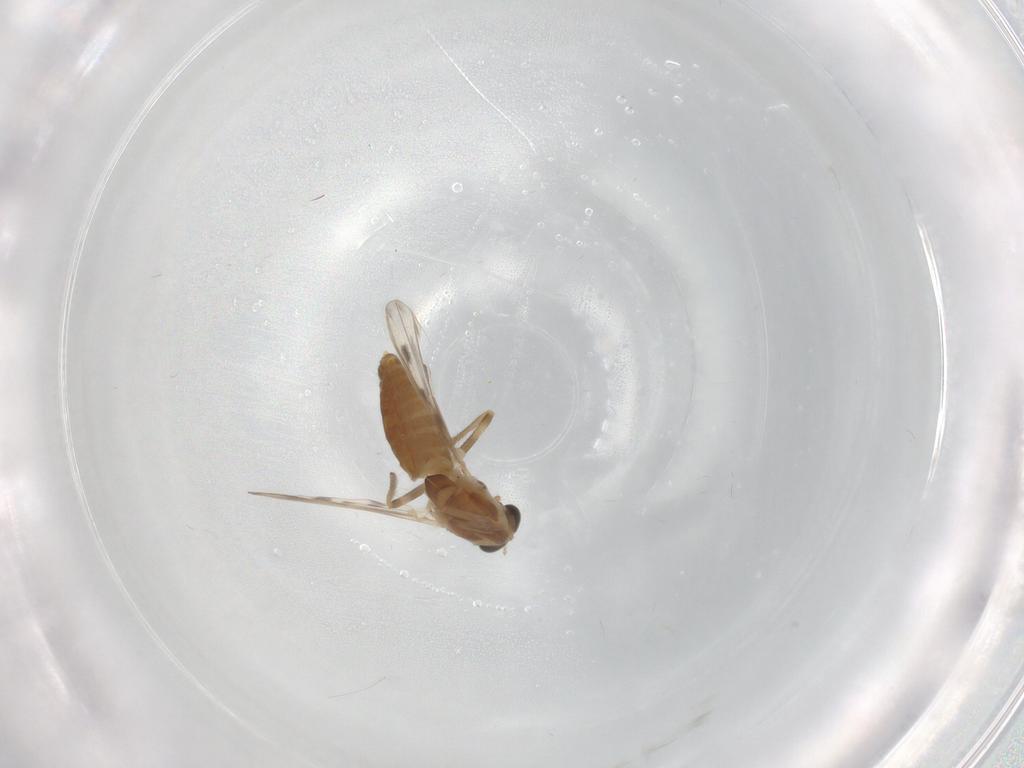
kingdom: Animalia
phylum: Arthropoda
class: Insecta
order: Diptera
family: Chironomidae
